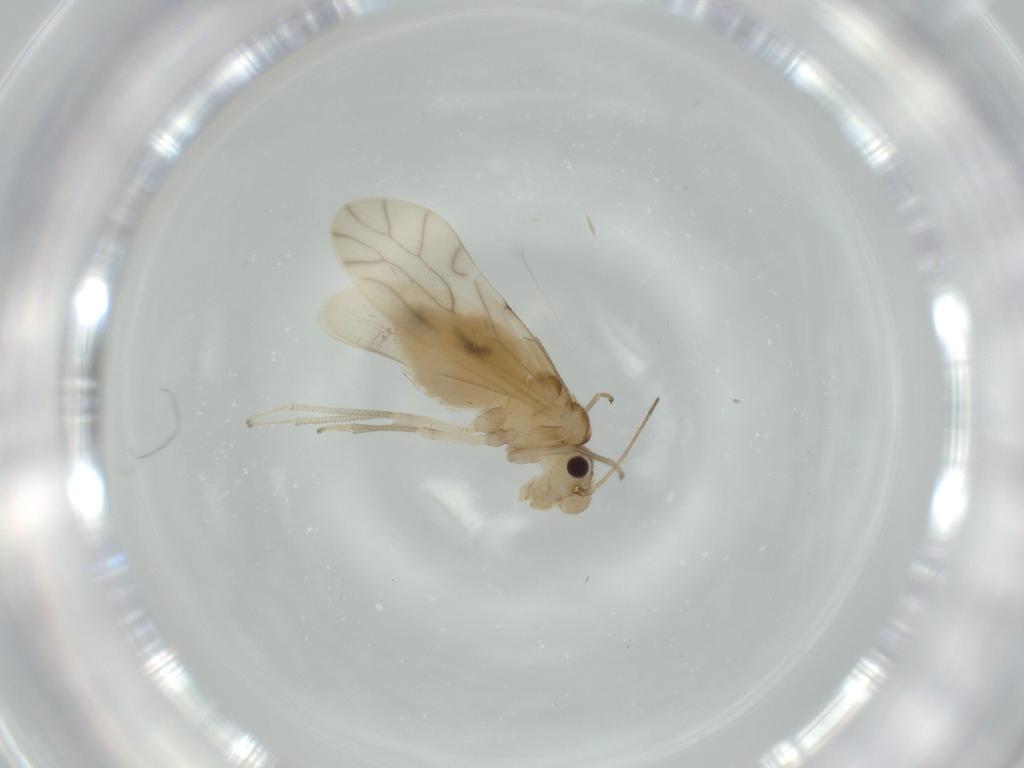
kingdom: Animalia
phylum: Arthropoda
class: Insecta
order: Psocodea
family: Caeciliusidae
